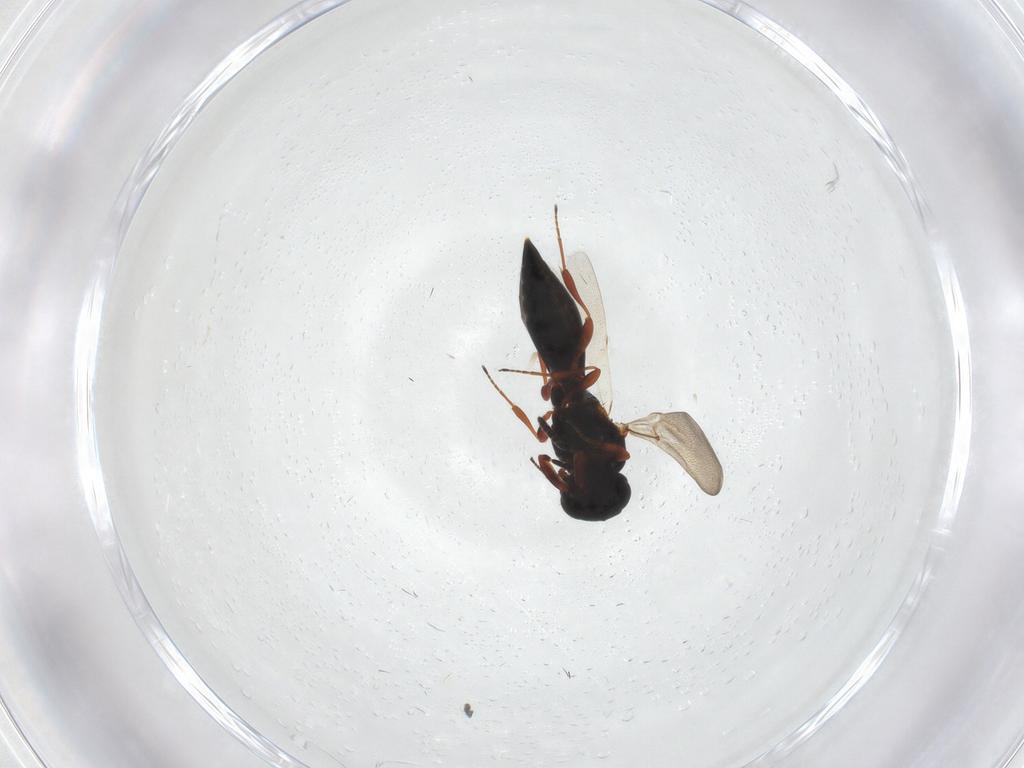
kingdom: Animalia
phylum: Arthropoda
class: Insecta
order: Hymenoptera
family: Platygastridae
